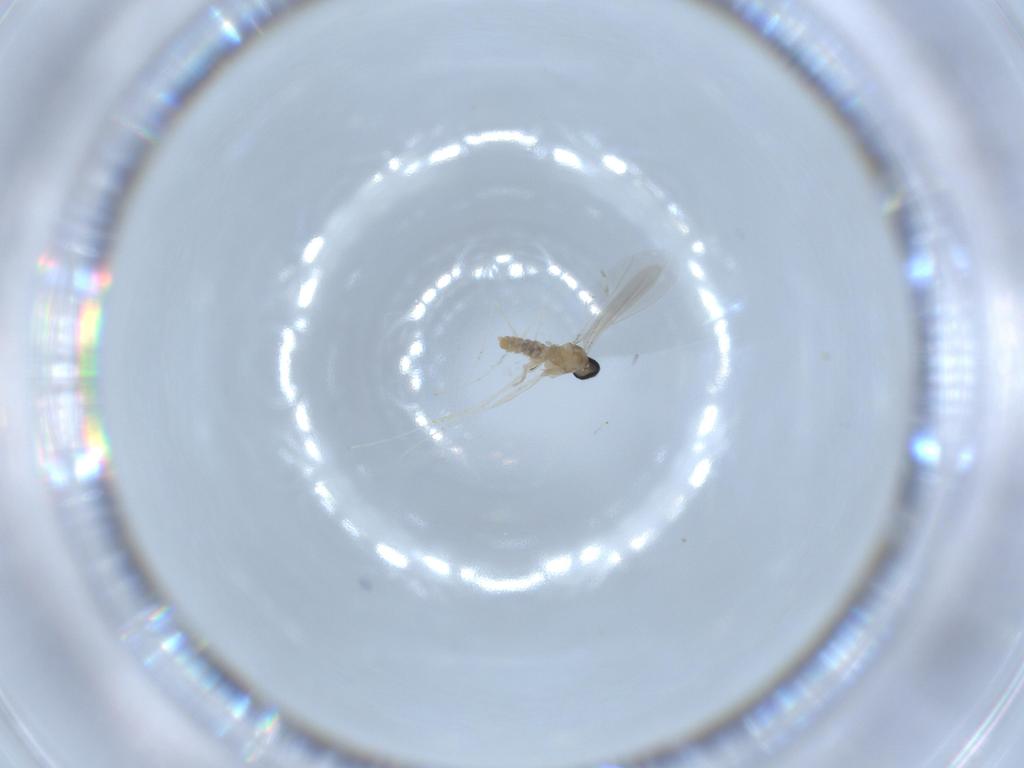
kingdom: Animalia
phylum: Arthropoda
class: Insecta
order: Diptera
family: Cecidomyiidae
